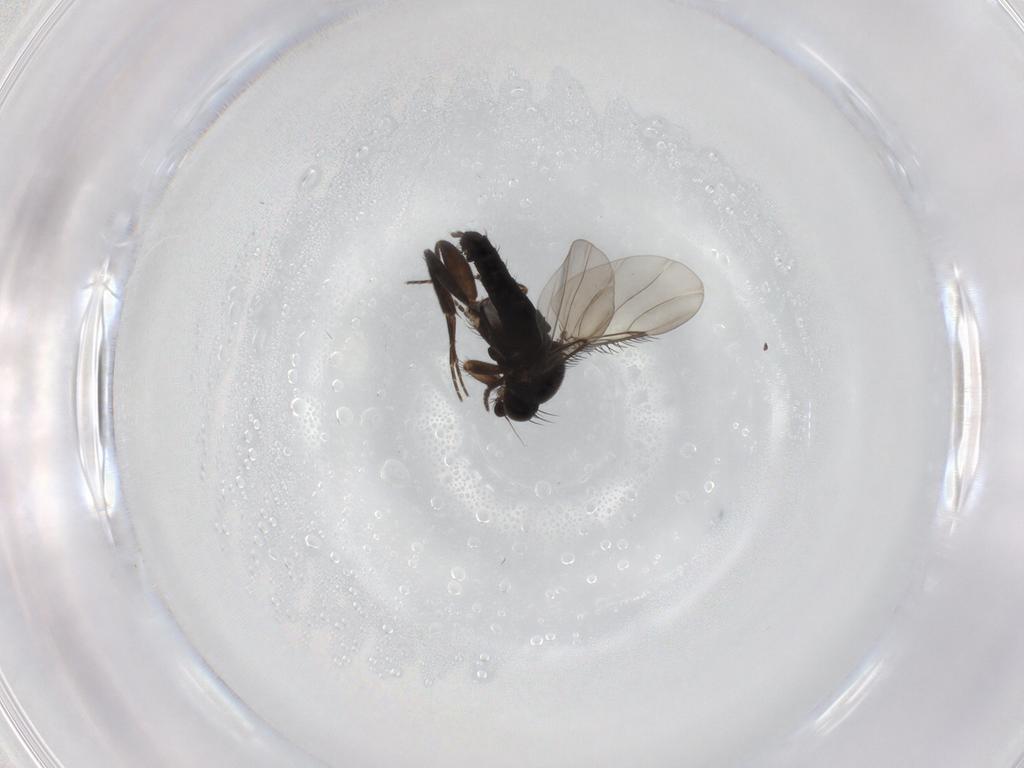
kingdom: Animalia
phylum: Arthropoda
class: Insecta
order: Diptera
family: Phoridae
